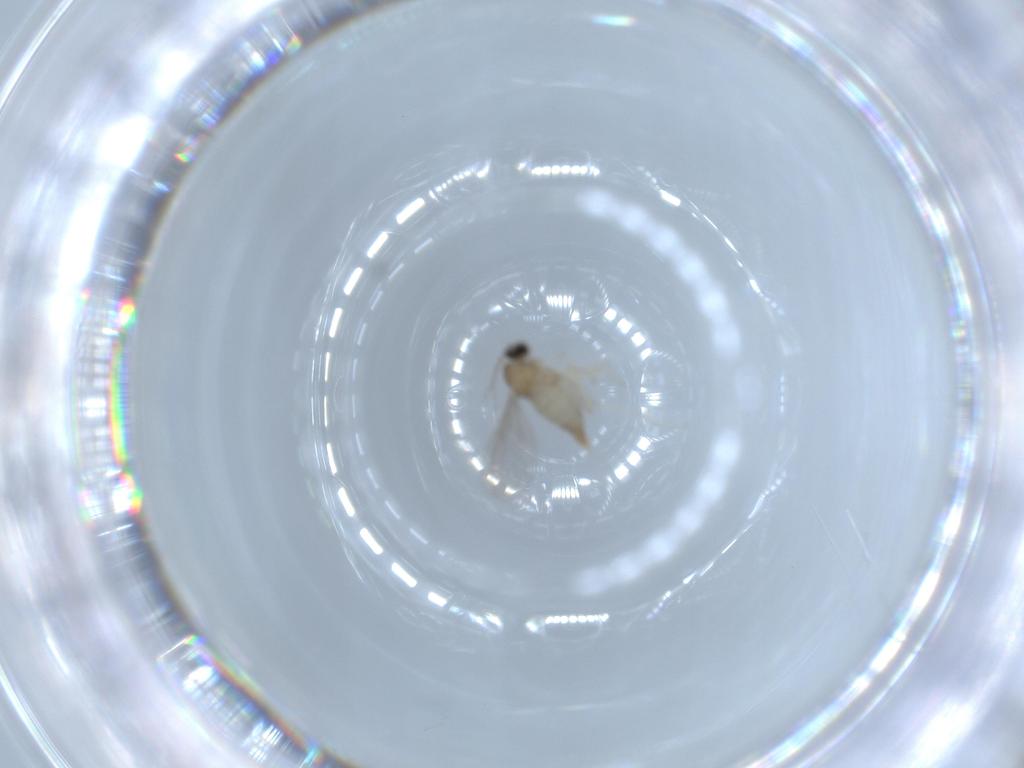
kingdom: Animalia
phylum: Arthropoda
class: Insecta
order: Diptera
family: Cecidomyiidae
